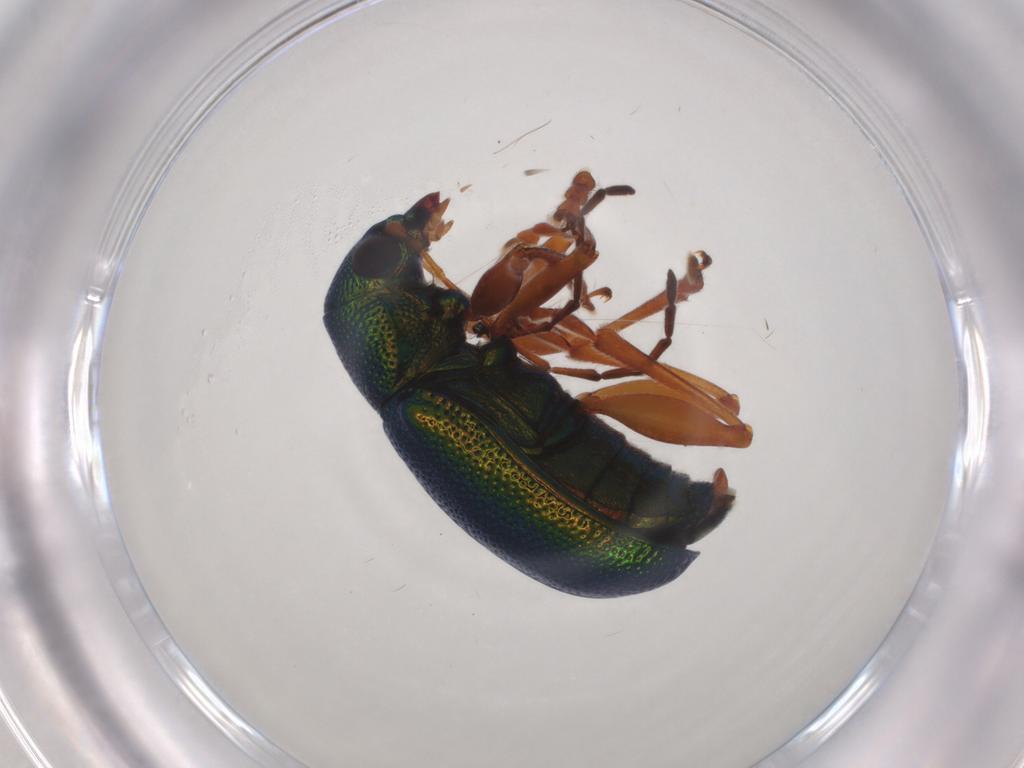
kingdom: Animalia
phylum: Arthropoda
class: Insecta
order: Coleoptera
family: Chrysomelidae
